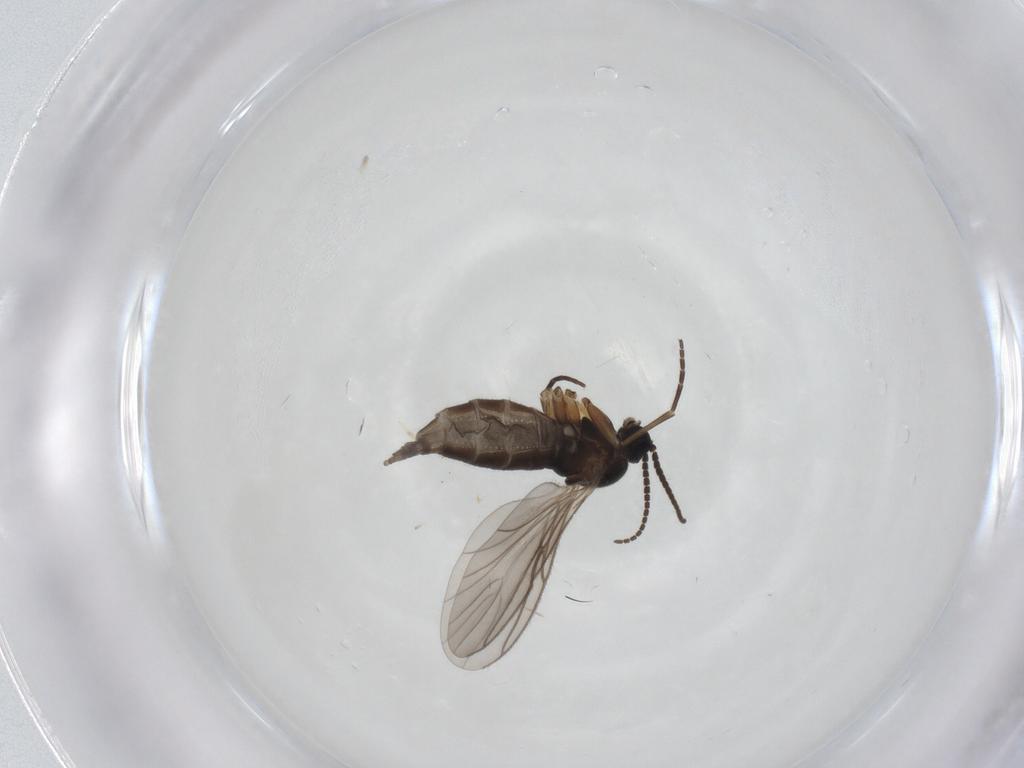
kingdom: Animalia
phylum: Arthropoda
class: Insecta
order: Diptera
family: Sciaridae
